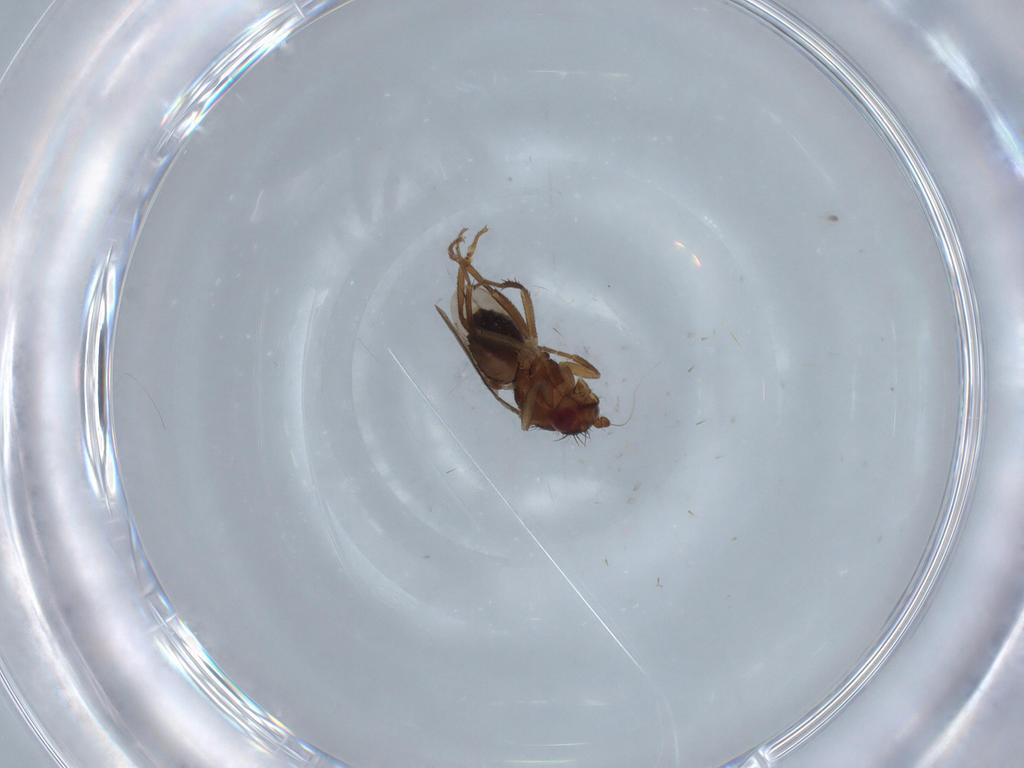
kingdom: Animalia
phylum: Arthropoda
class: Insecta
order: Diptera
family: Sphaeroceridae
